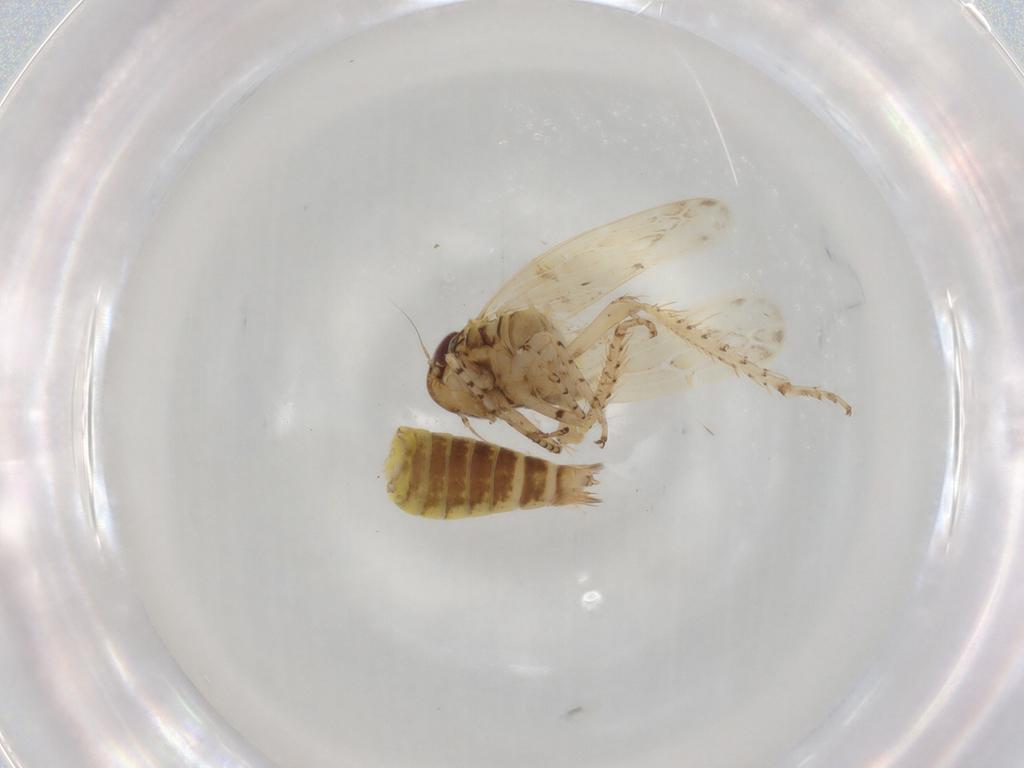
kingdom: Animalia
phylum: Arthropoda
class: Insecta
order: Hemiptera
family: Cicadellidae
